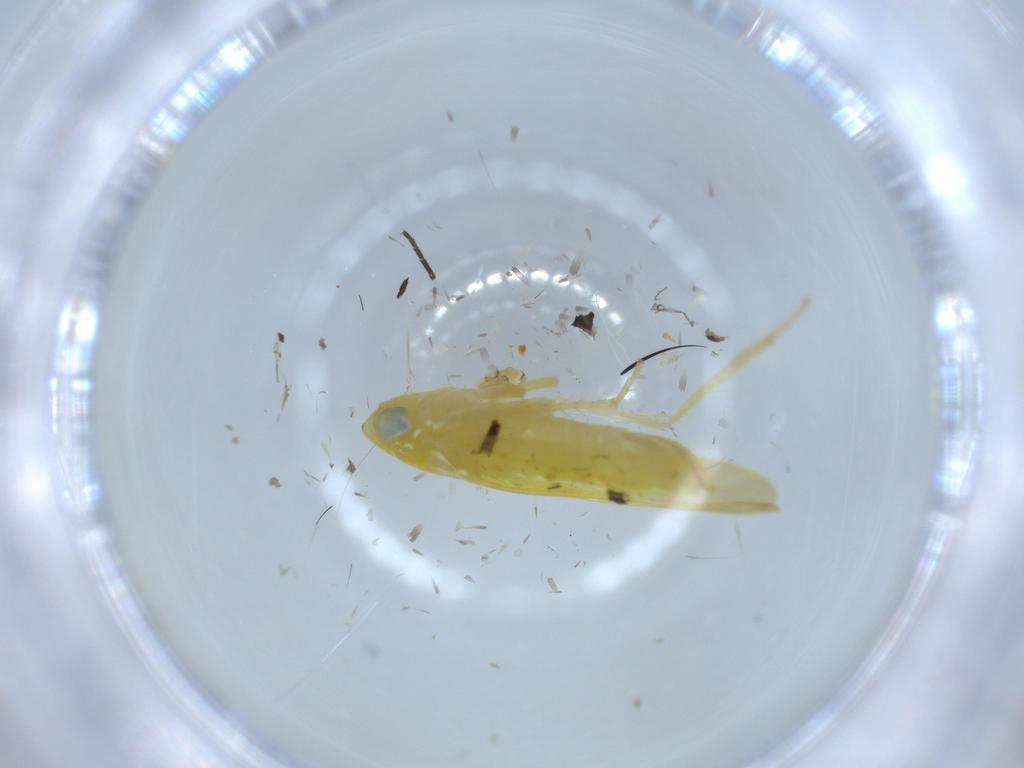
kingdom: Animalia
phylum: Arthropoda
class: Insecta
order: Hemiptera
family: Cicadellidae
